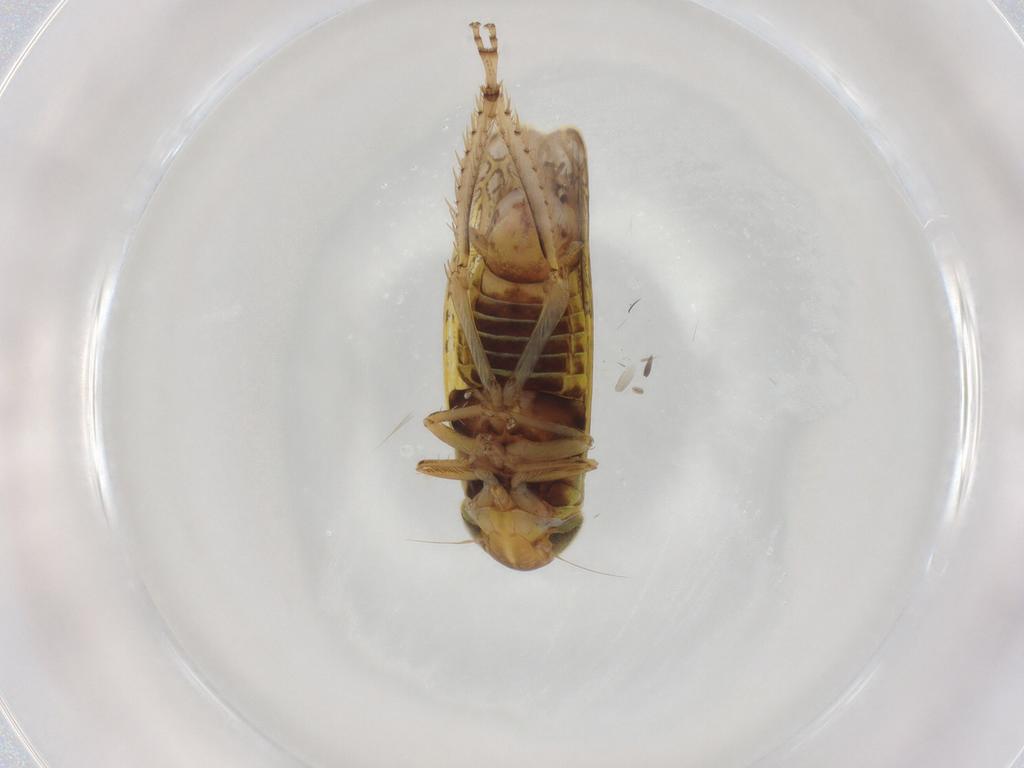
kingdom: Animalia
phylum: Arthropoda
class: Insecta
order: Hemiptera
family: Cicadellidae
